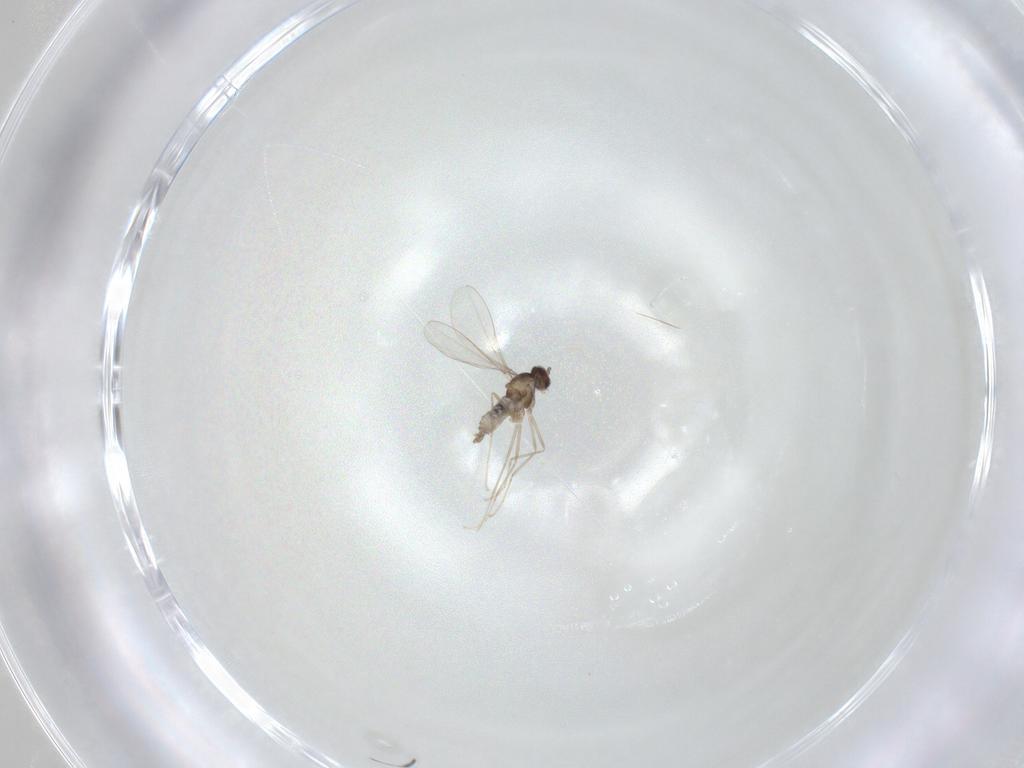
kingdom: Animalia
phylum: Arthropoda
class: Insecta
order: Diptera
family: Cecidomyiidae
